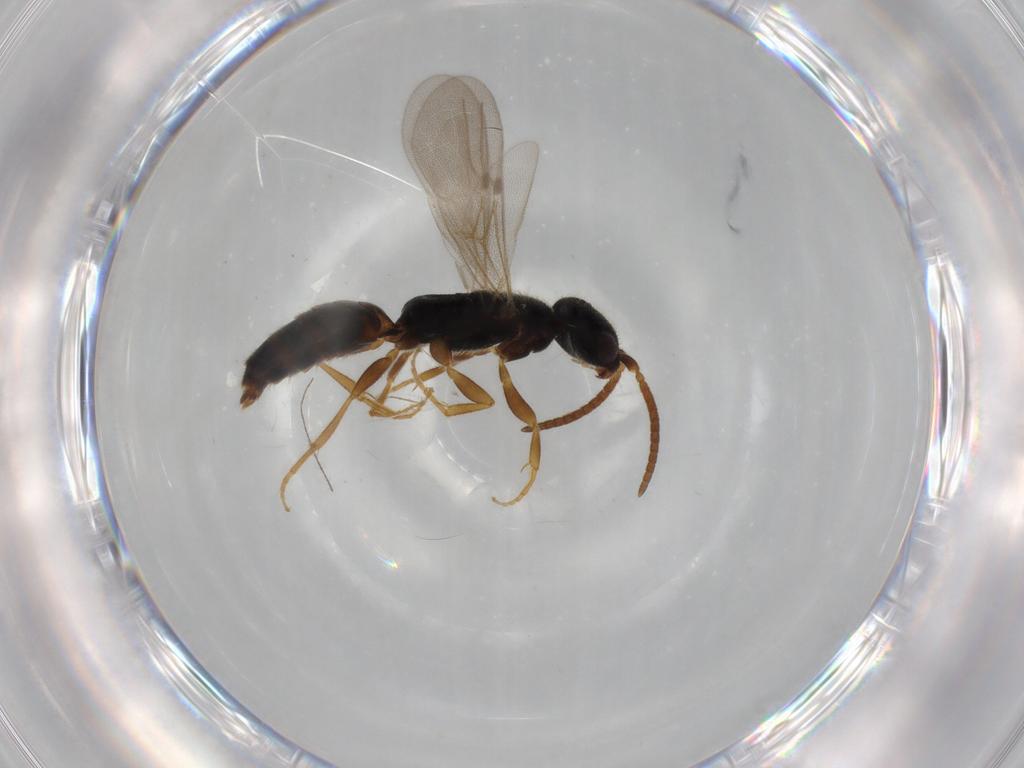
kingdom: Animalia
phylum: Arthropoda
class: Insecta
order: Hymenoptera
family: Bethylidae
